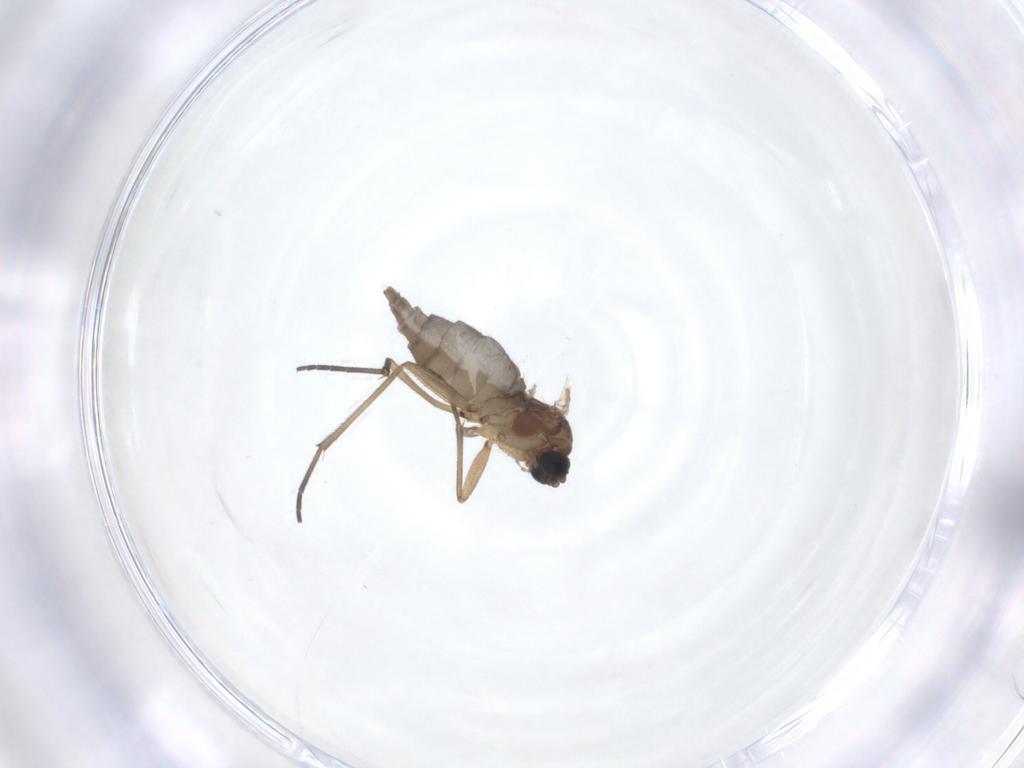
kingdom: Animalia
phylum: Arthropoda
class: Insecta
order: Diptera
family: Sciaridae
